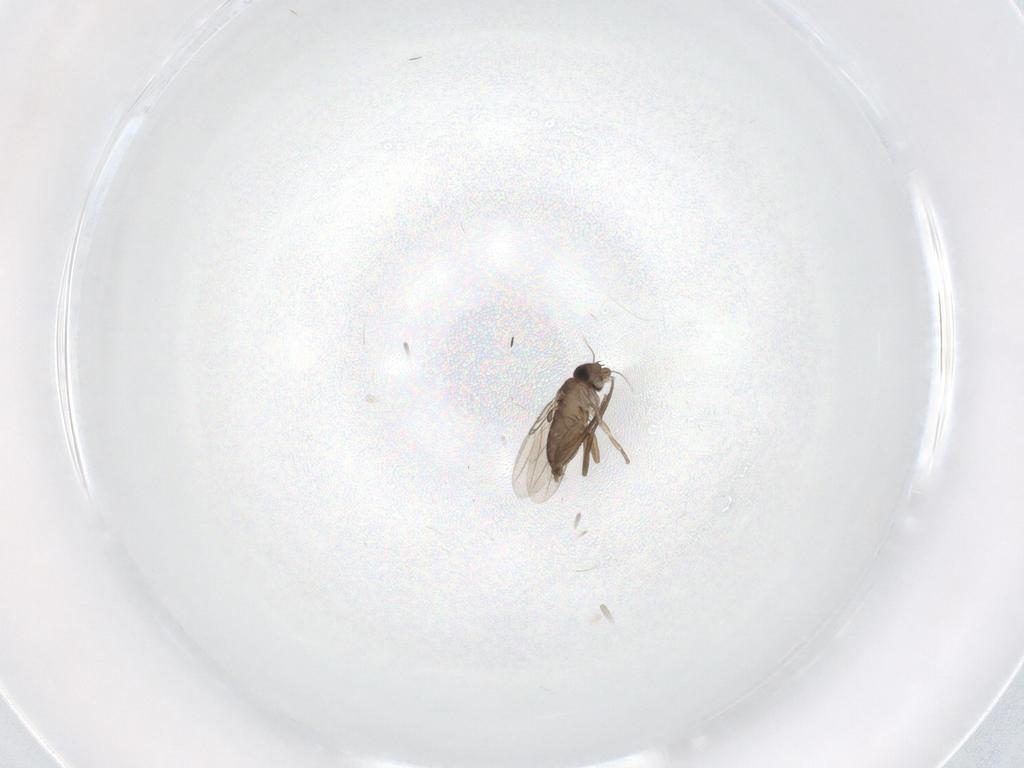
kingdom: Animalia
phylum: Arthropoda
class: Insecta
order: Diptera
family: Phoridae
